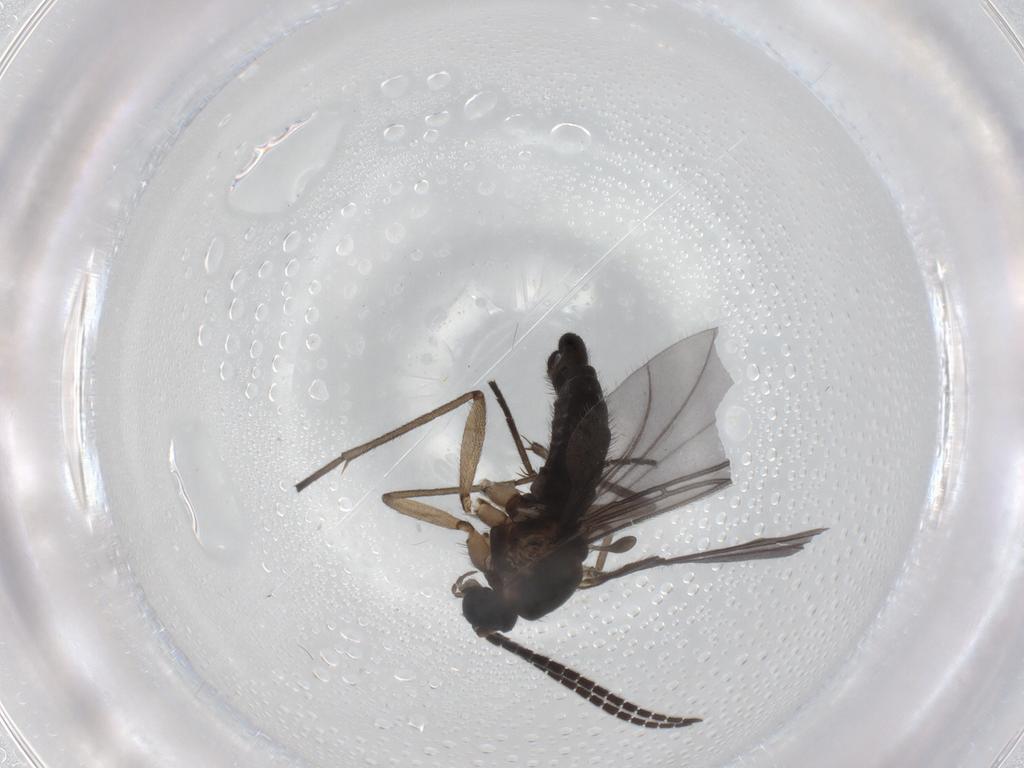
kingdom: Animalia
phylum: Arthropoda
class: Insecta
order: Diptera
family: Sciaridae
